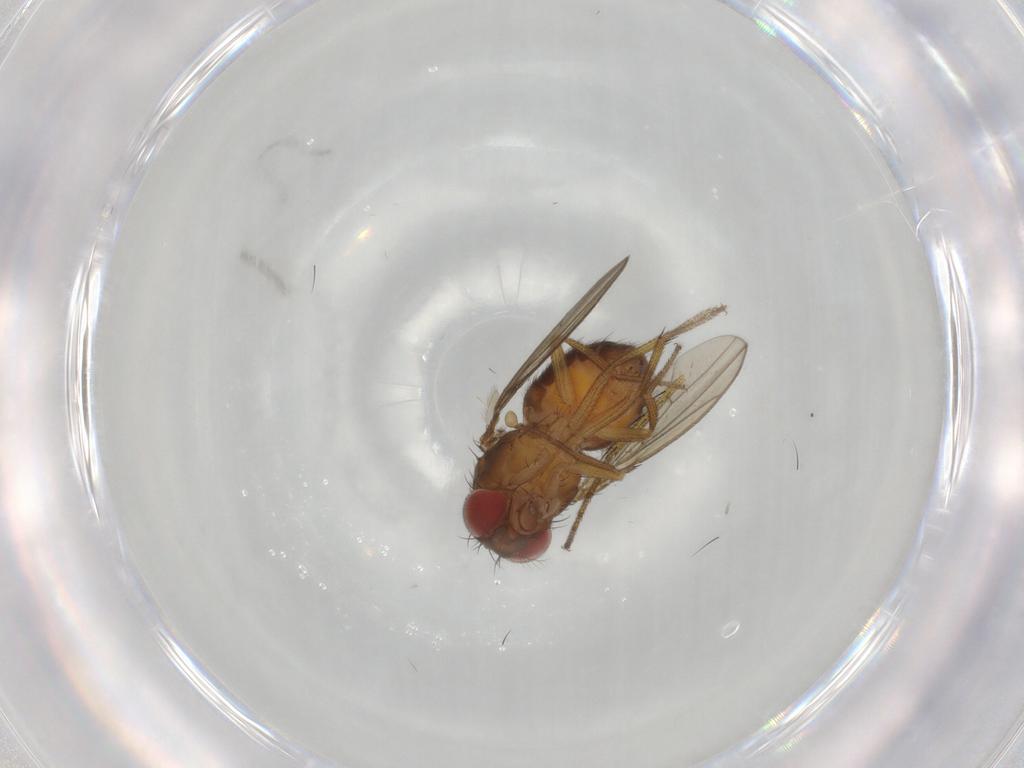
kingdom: Animalia
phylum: Arthropoda
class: Insecta
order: Diptera
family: Drosophilidae
